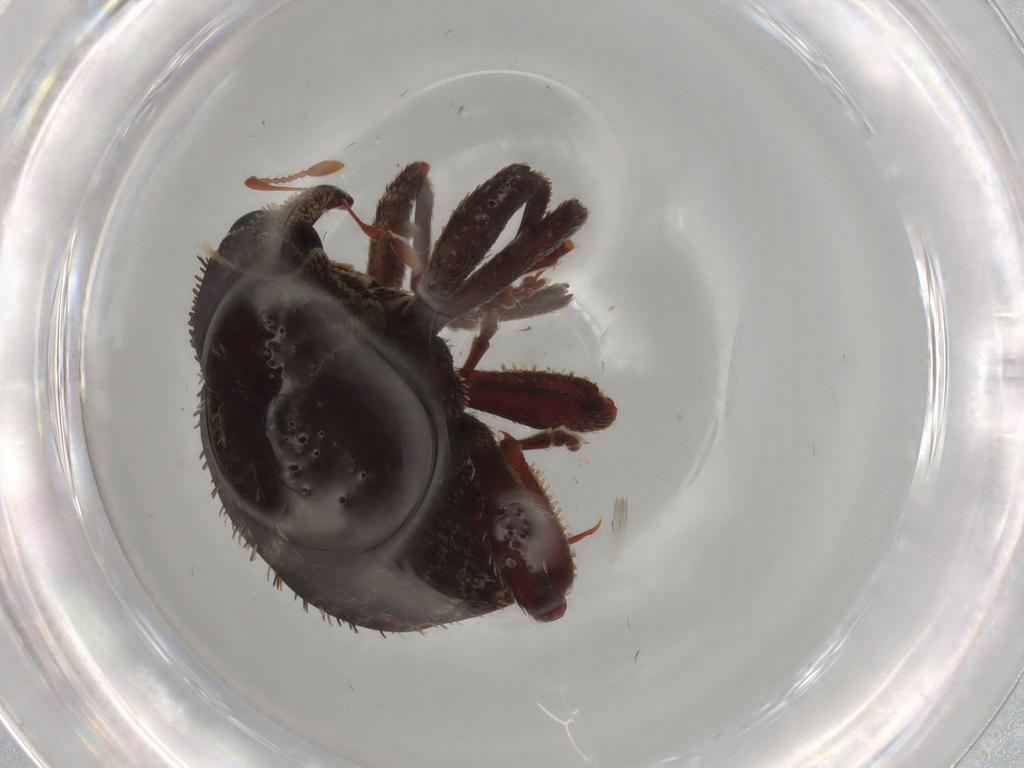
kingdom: Animalia
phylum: Arthropoda
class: Insecta
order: Coleoptera
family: Curculionidae
